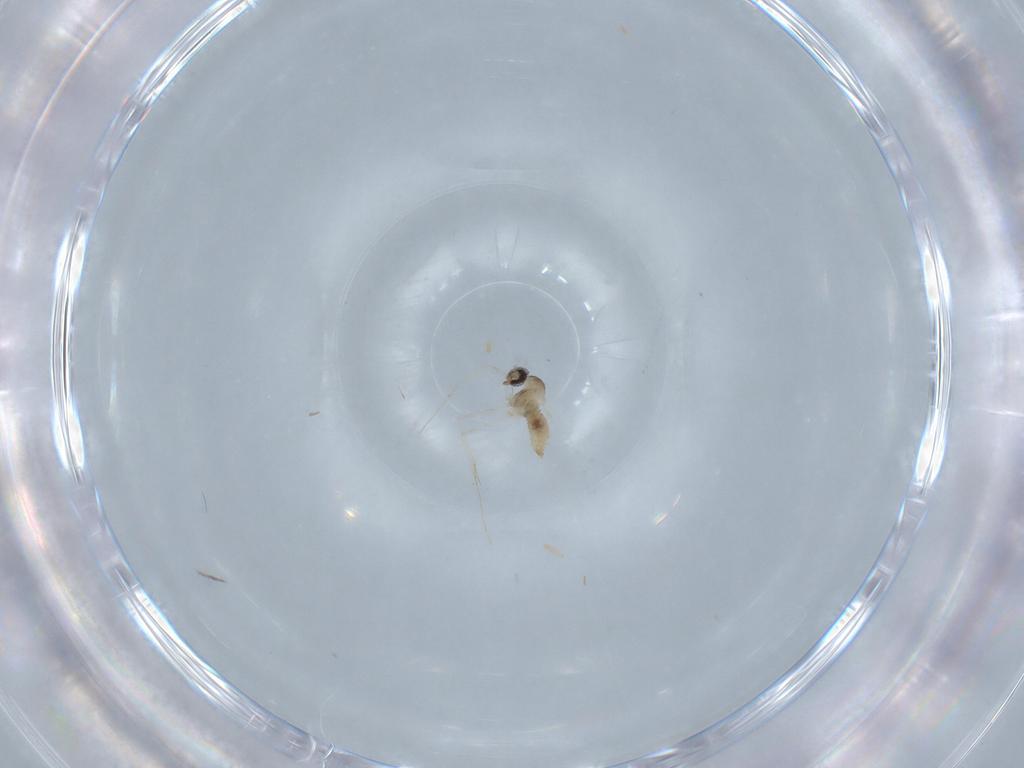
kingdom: Animalia
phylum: Arthropoda
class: Insecta
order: Diptera
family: Cecidomyiidae
